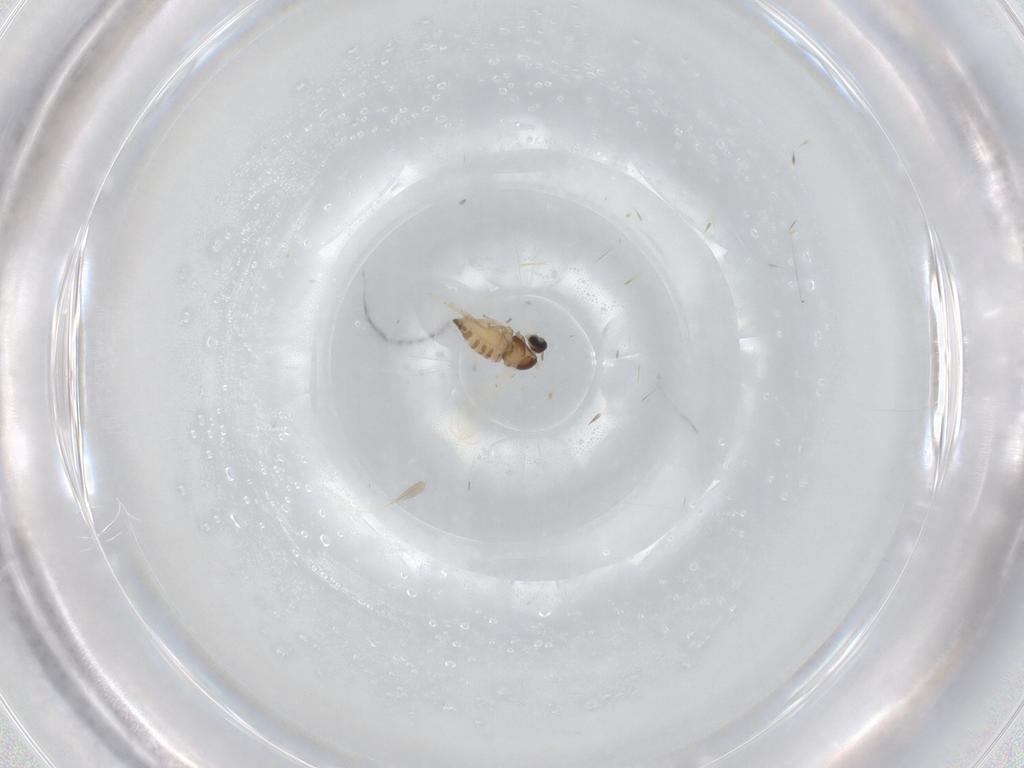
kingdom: Animalia
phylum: Arthropoda
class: Insecta
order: Diptera
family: Cecidomyiidae
